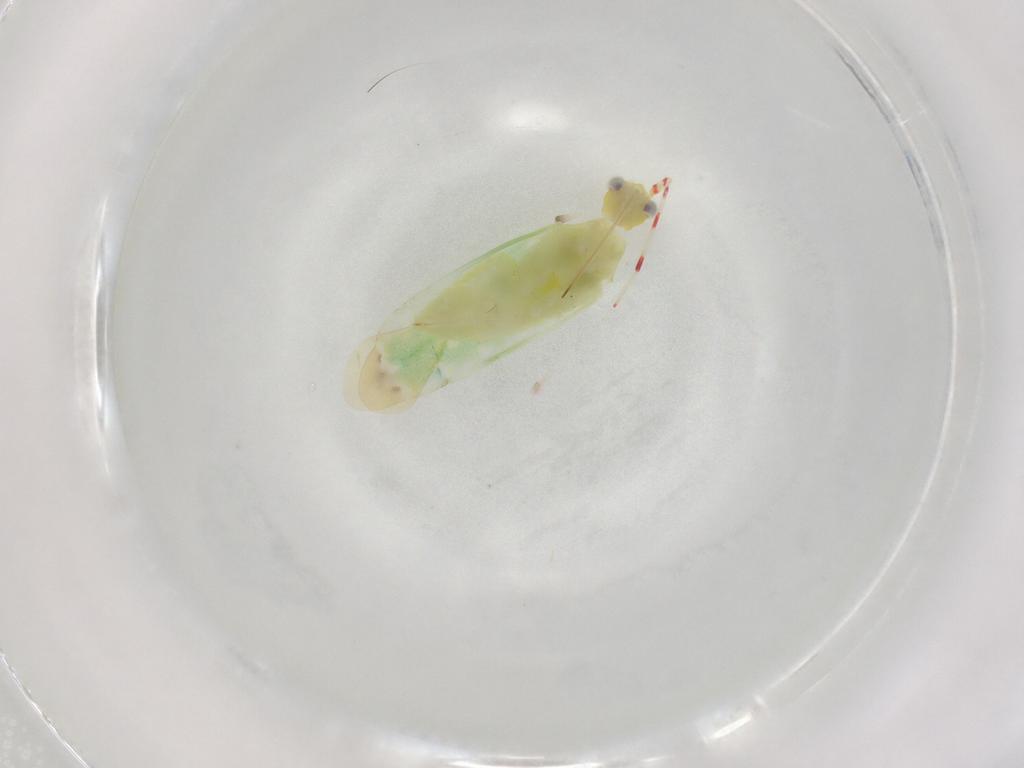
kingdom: Animalia
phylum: Arthropoda
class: Insecta
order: Hemiptera
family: Miridae
